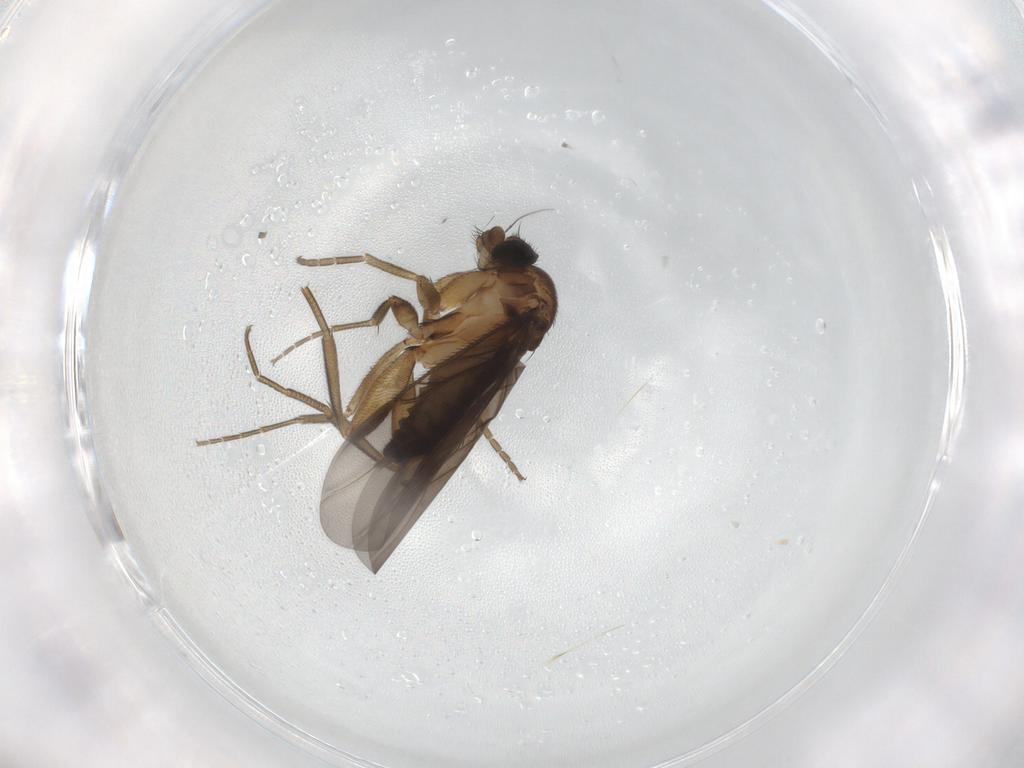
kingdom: Animalia
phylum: Arthropoda
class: Insecta
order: Diptera
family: Phoridae
